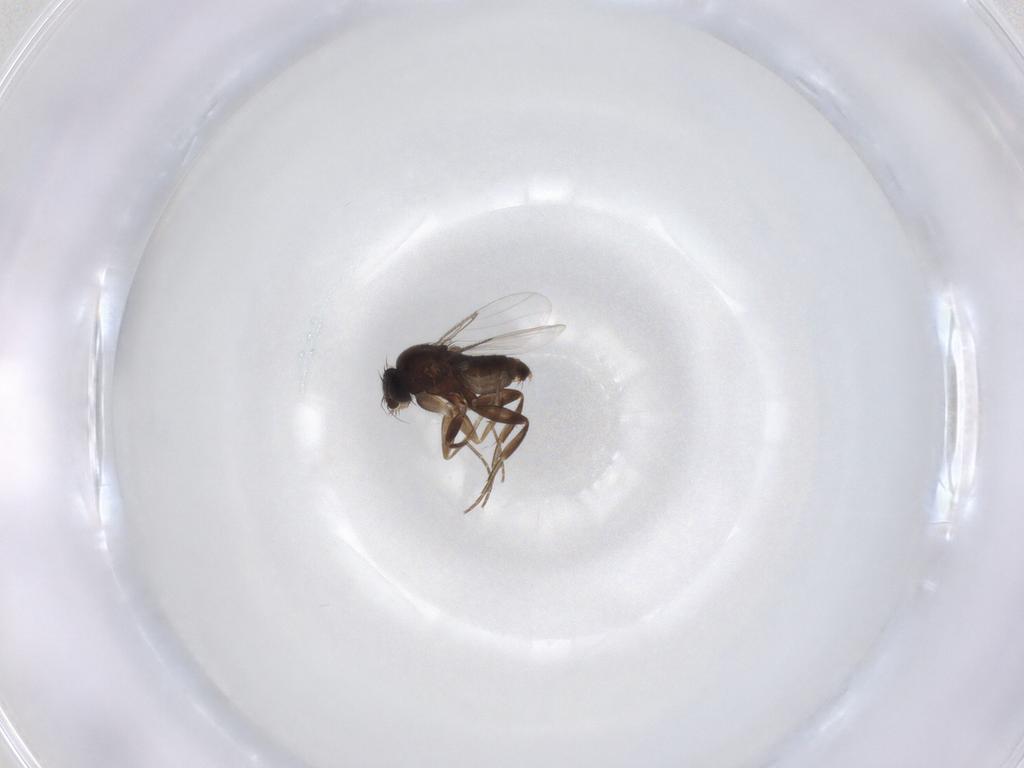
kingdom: Animalia
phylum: Arthropoda
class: Insecta
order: Diptera
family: Phoridae
